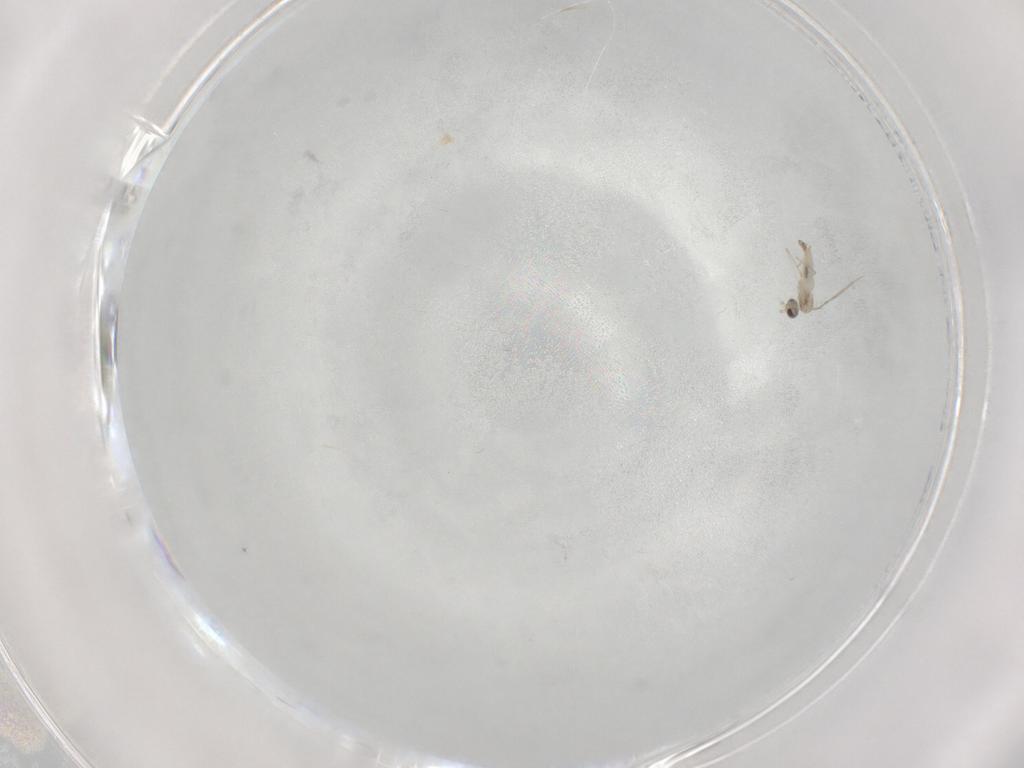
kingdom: Animalia
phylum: Arthropoda
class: Insecta
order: Diptera
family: Cecidomyiidae
